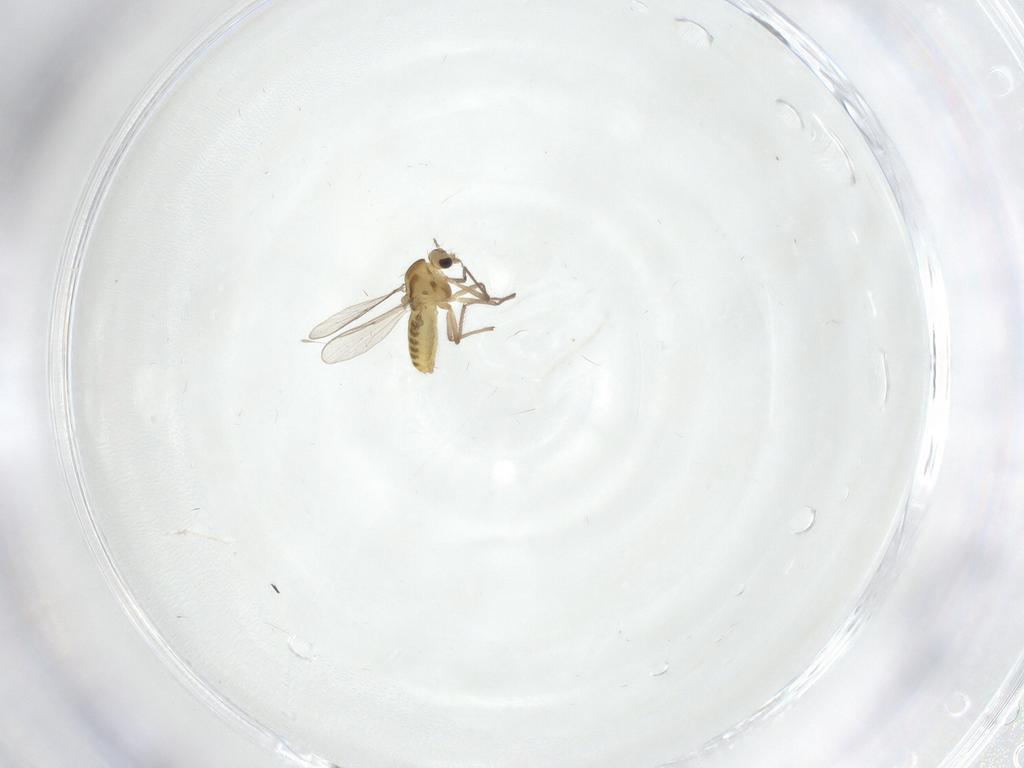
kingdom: Animalia
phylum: Arthropoda
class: Insecta
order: Diptera
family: Chironomidae
